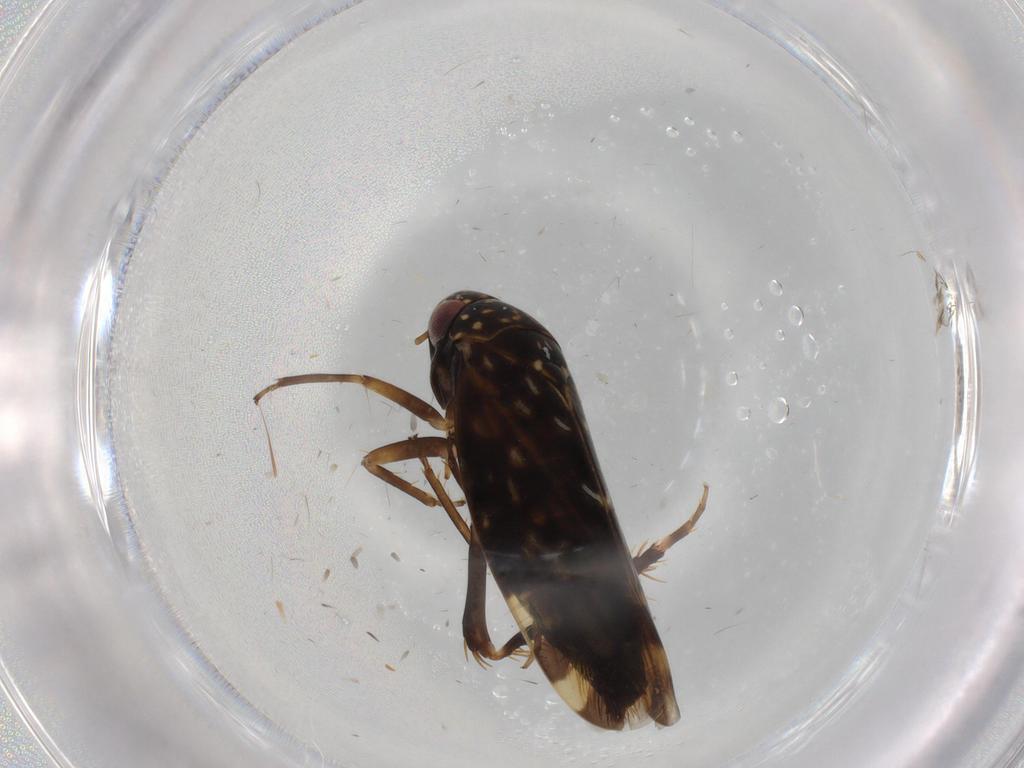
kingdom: Animalia
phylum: Arthropoda
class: Insecta
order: Hemiptera
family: Cicadellidae
